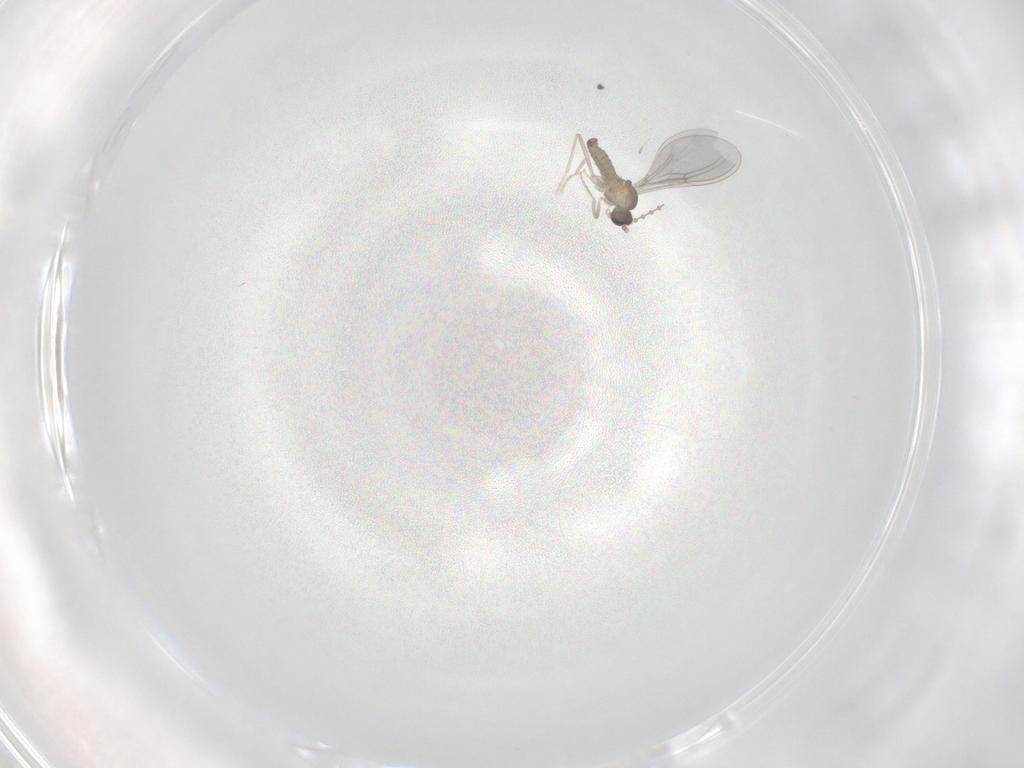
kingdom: Animalia
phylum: Arthropoda
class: Insecta
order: Diptera
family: Cecidomyiidae
